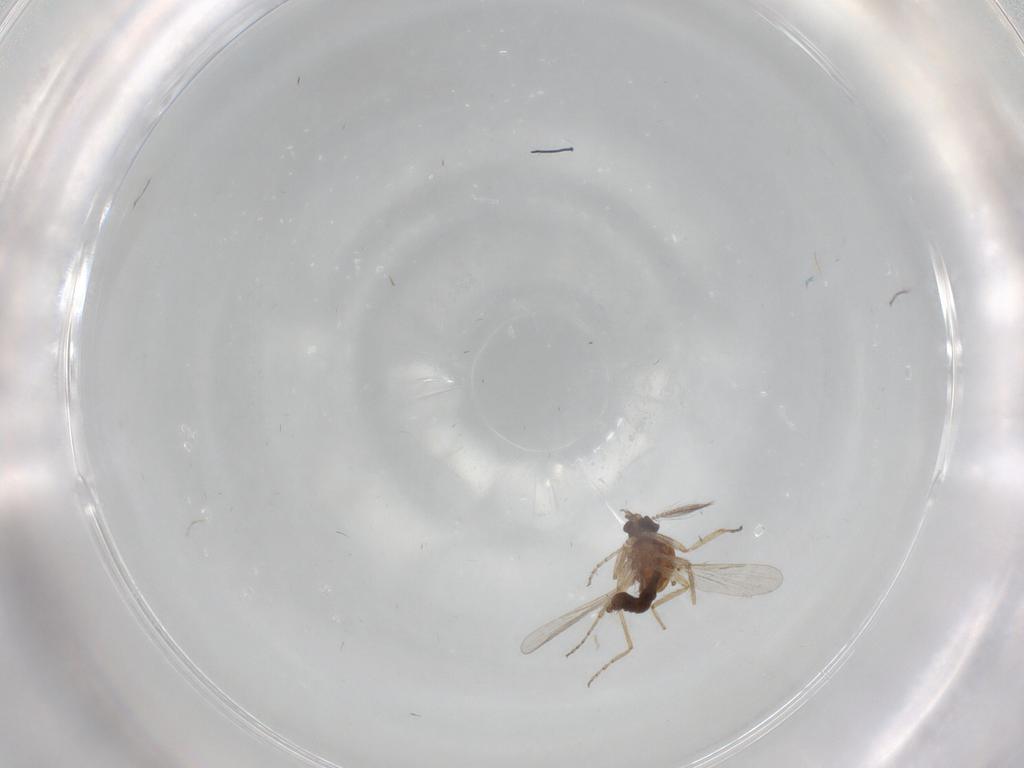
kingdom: Animalia
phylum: Arthropoda
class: Insecta
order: Diptera
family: Ceratopogonidae
